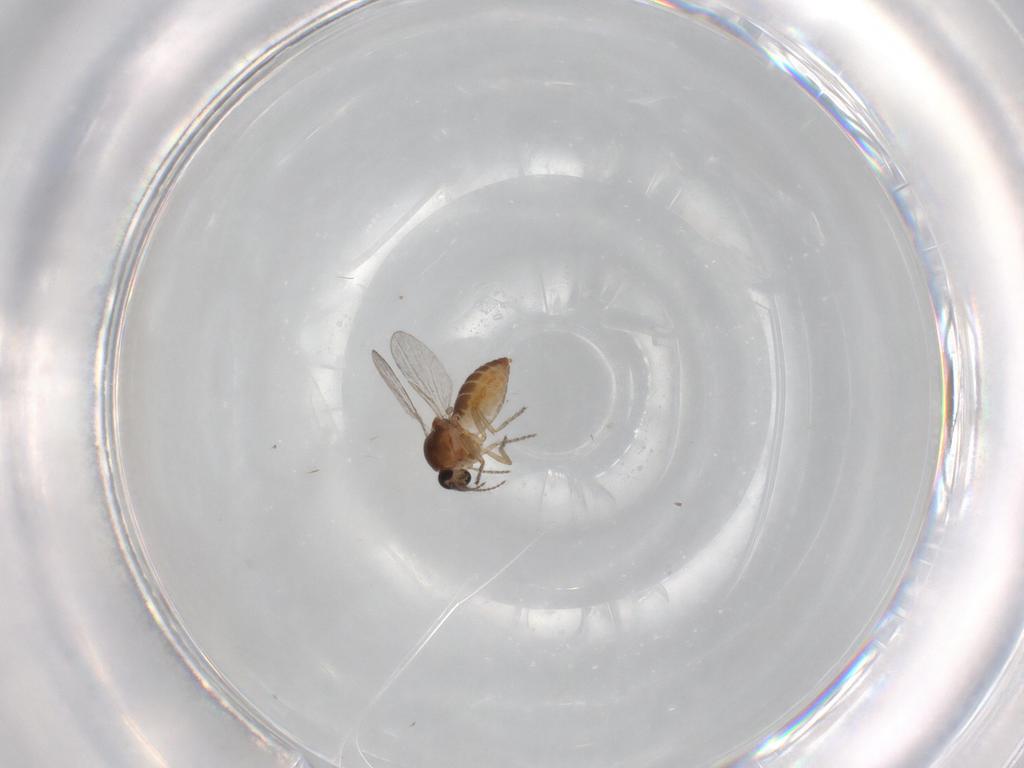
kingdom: Animalia
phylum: Arthropoda
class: Insecta
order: Diptera
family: Ceratopogonidae
